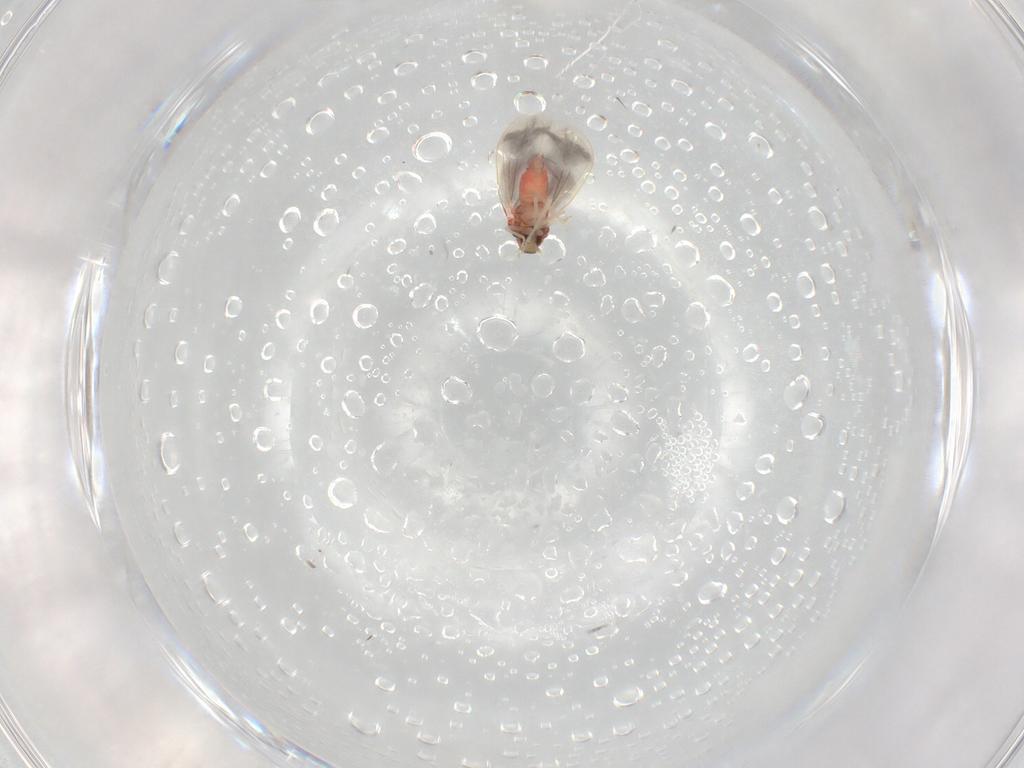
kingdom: Animalia
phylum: Arthropoda
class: Insecta
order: Hemiptera
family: Aleyrodidae
